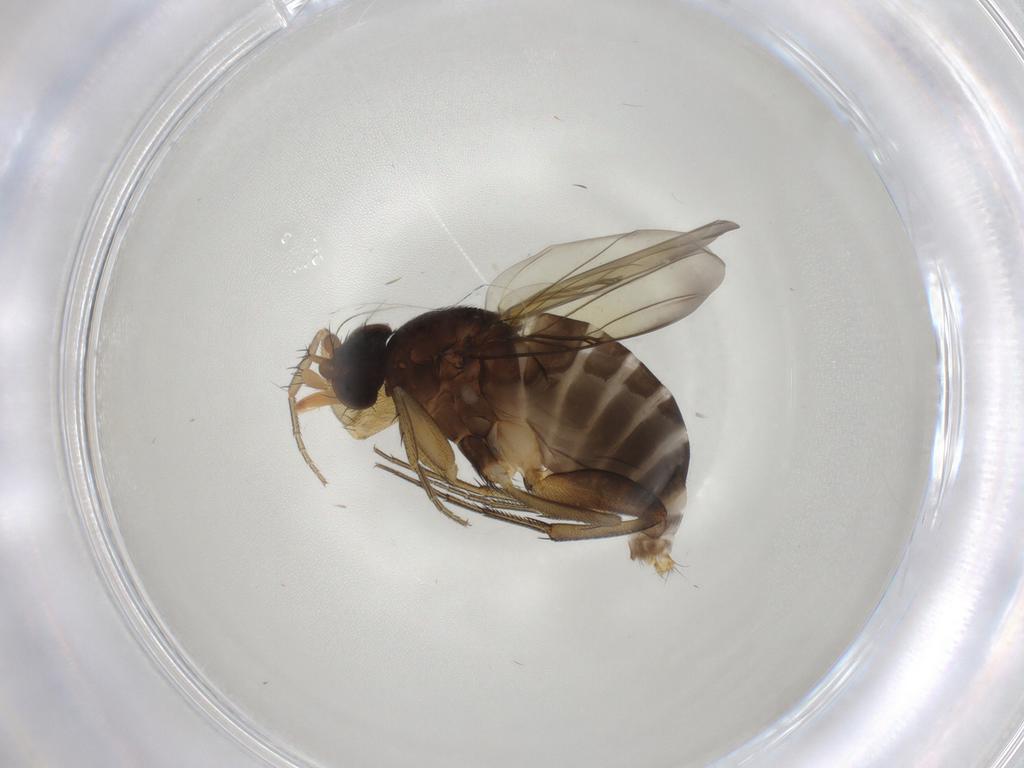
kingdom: Animalia
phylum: Arthropoda
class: Insecta
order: Diptera
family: Phoridae
